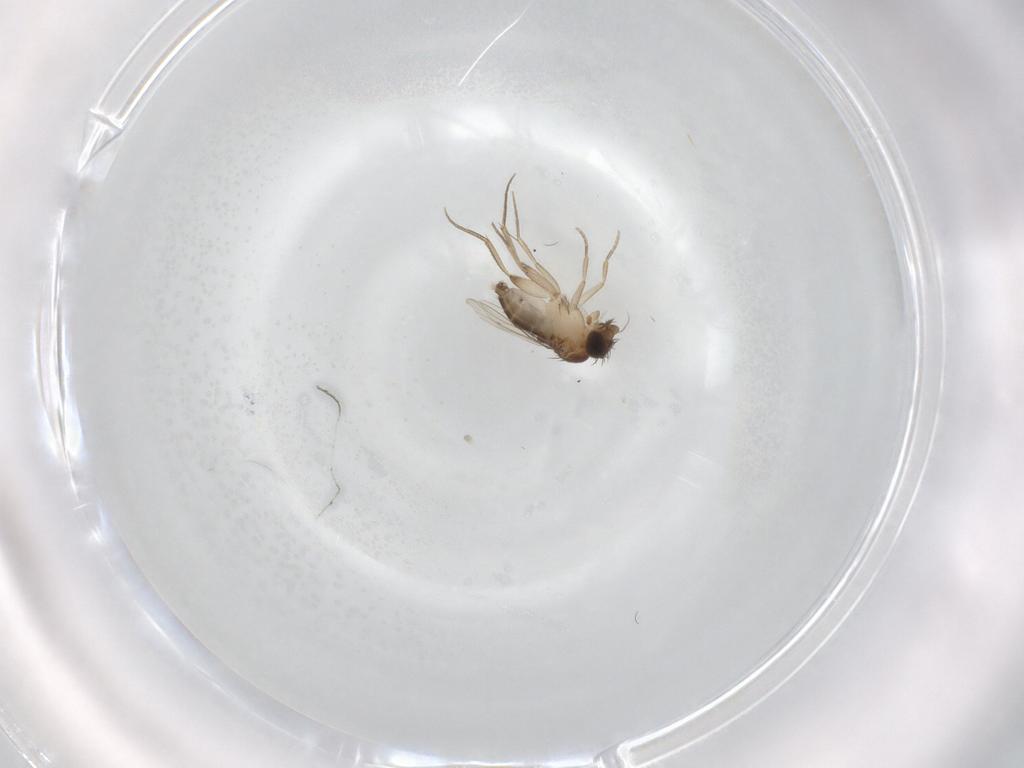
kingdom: Animalia
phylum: Arthropoda
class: Insecta
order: Diptera
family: Phoridae
